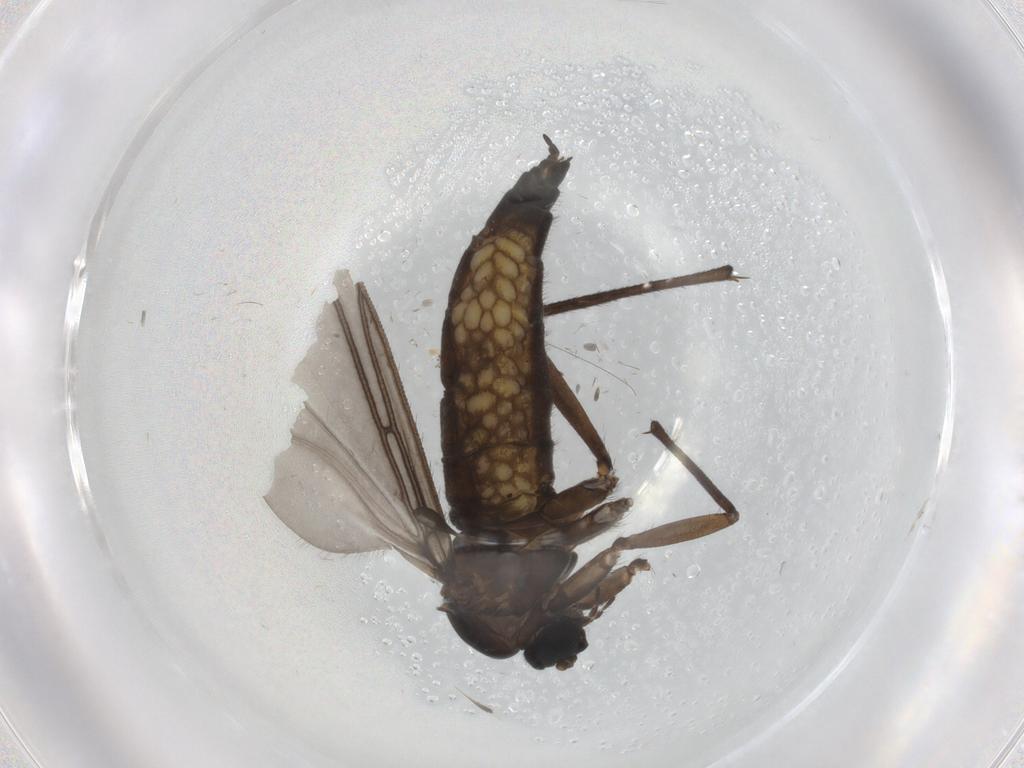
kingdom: Animalia
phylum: Arthropoda
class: Insecta
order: Diptera
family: Sciaridae
